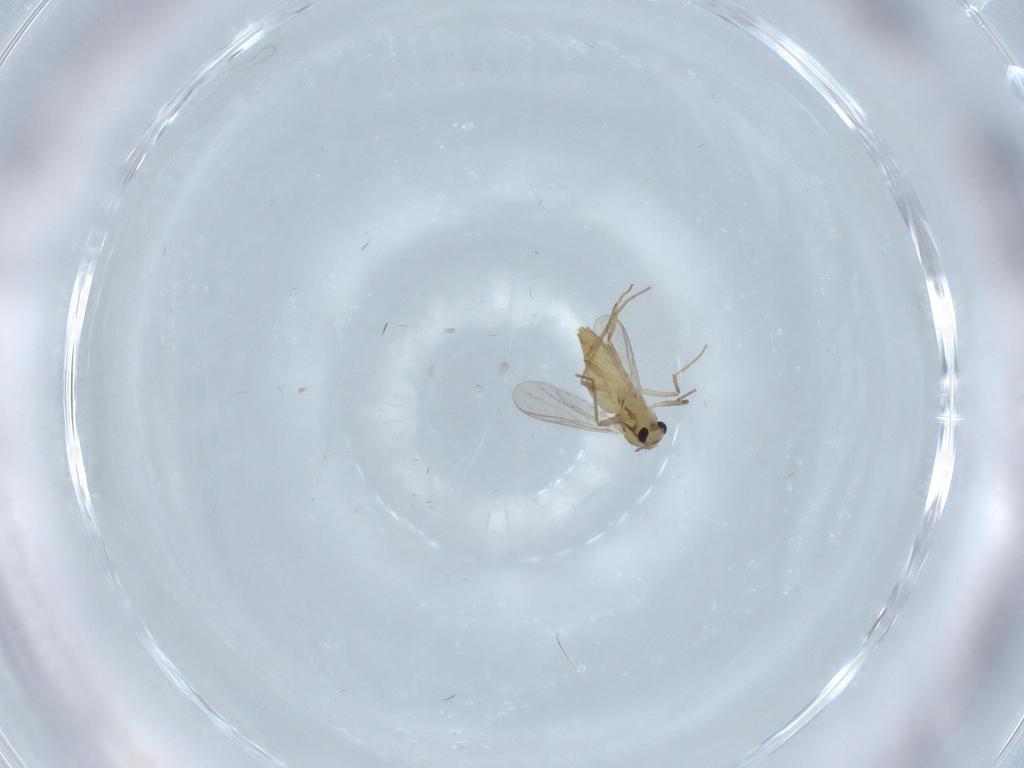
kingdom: Animalia
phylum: Arthropoda
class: Insecta
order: Diptera
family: Chironomidae
